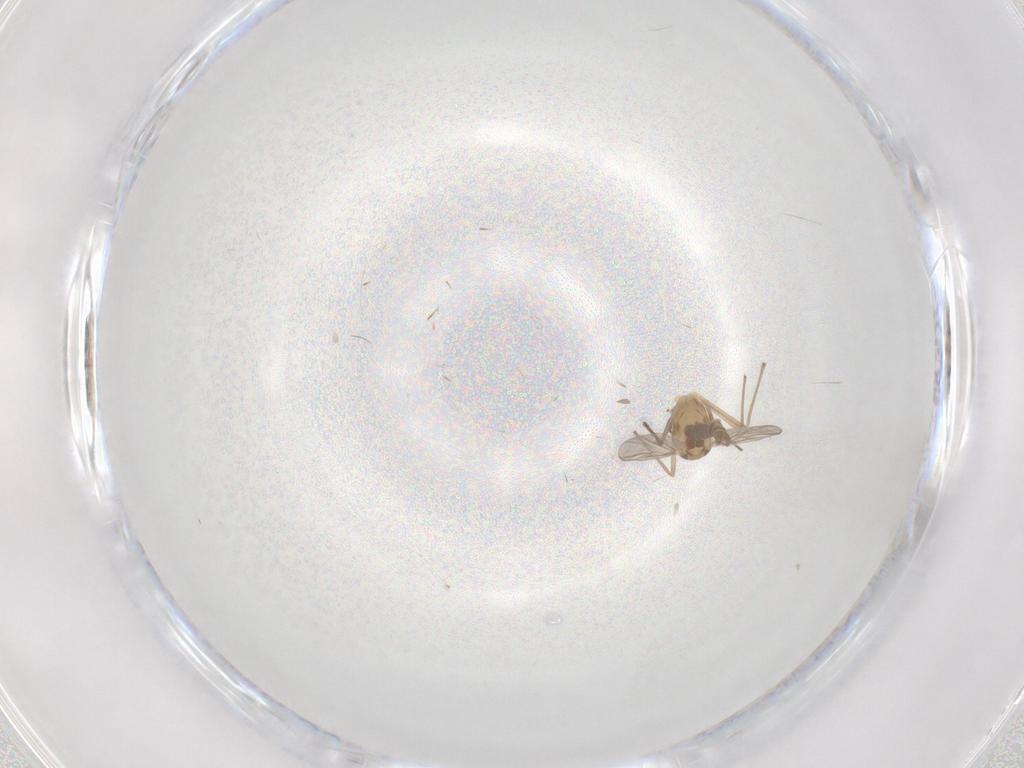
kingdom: Animalia
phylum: Arthropoda
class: Insecta
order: Diptera
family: Chironomidae
